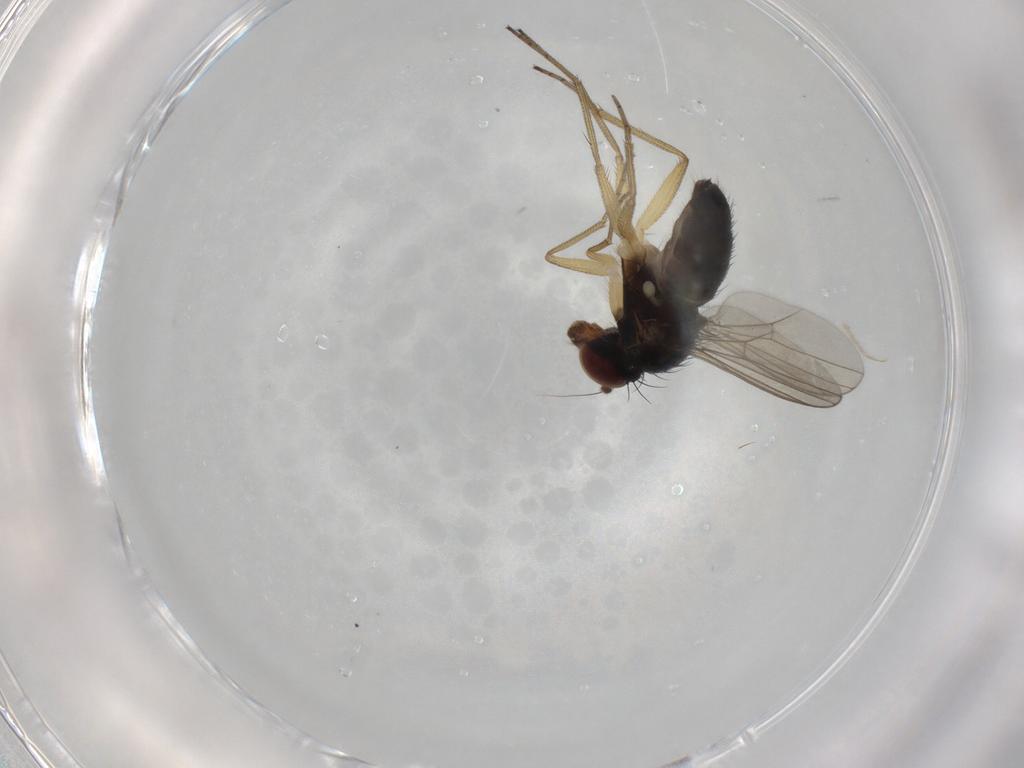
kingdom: Animalia
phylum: Arthropoda
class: Insecta
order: Diptera
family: Dolichopodidae
